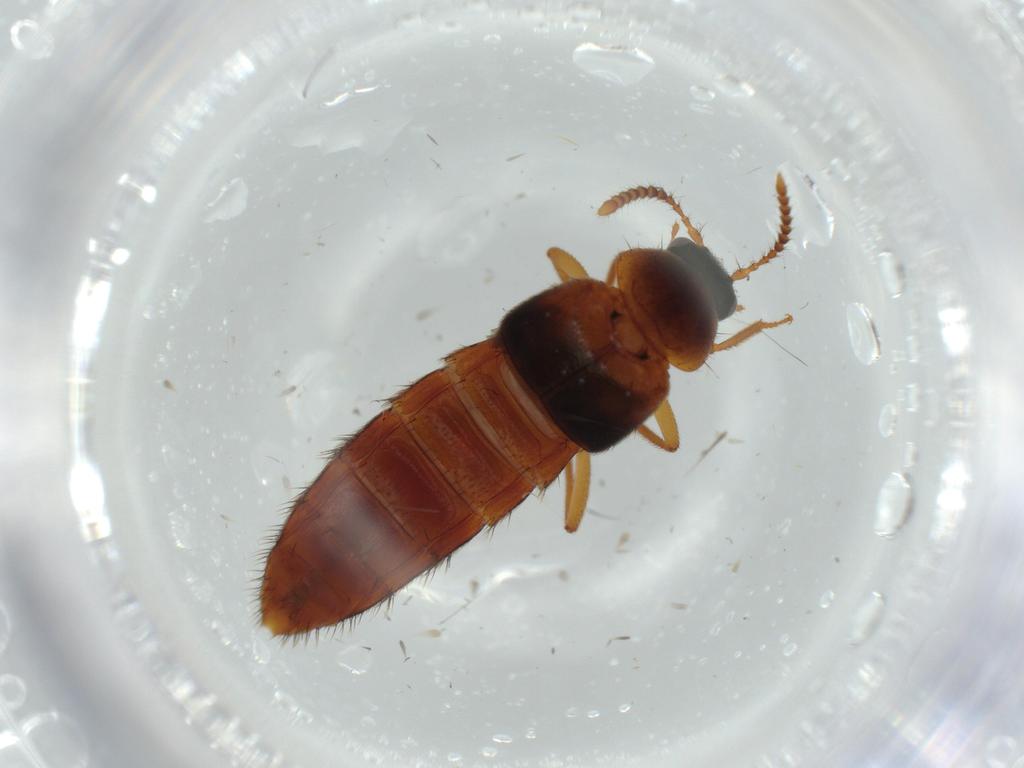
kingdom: Animalia
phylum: Arthropoda
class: Insecta
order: Coleoptera
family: Staphylinidae
